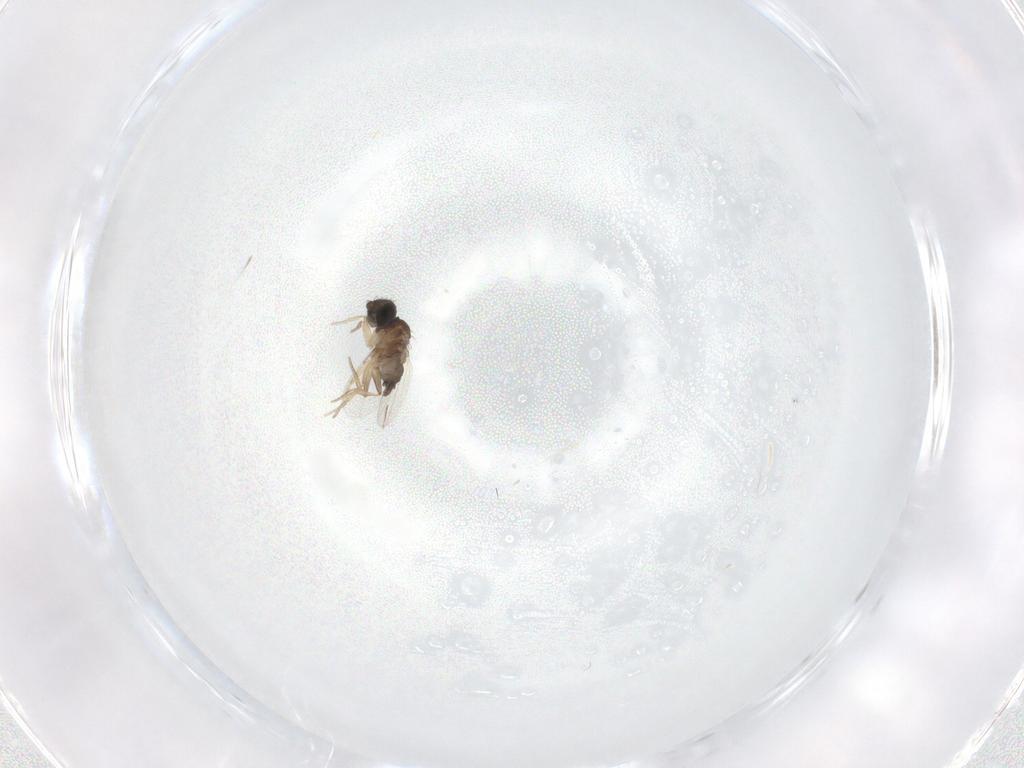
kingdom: Animalia
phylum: Arthropoda
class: Insecta
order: Diptera
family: Phoridae
